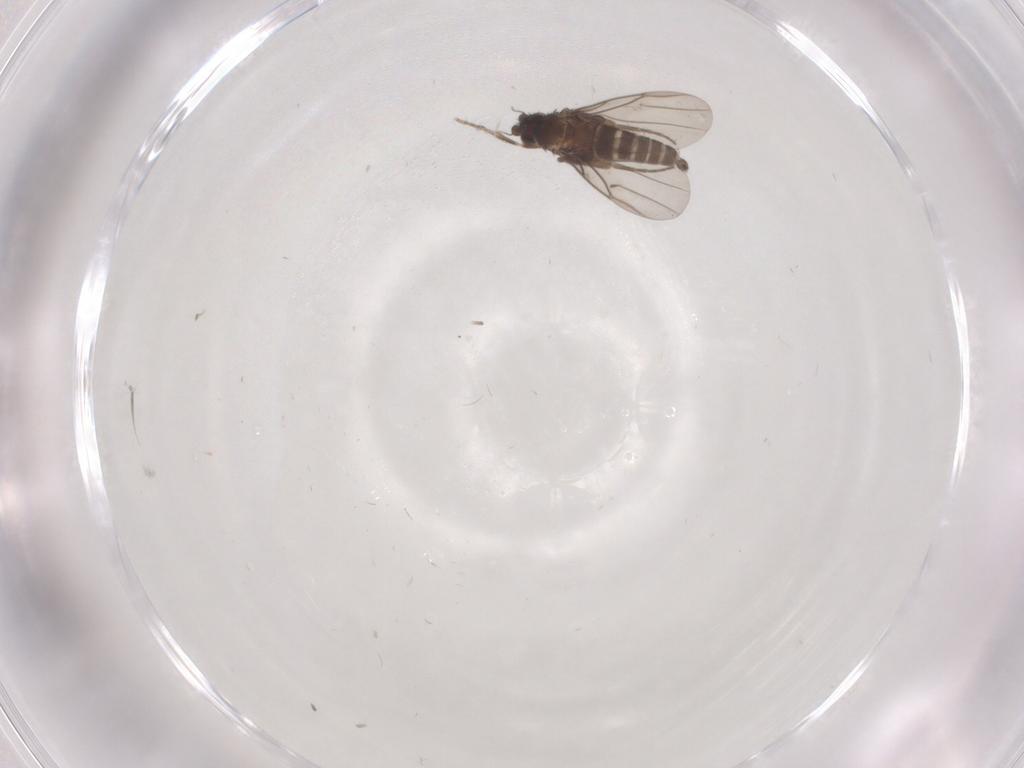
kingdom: Animalia
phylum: Arthropoda
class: Insecta
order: Diptera
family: Phoridae
